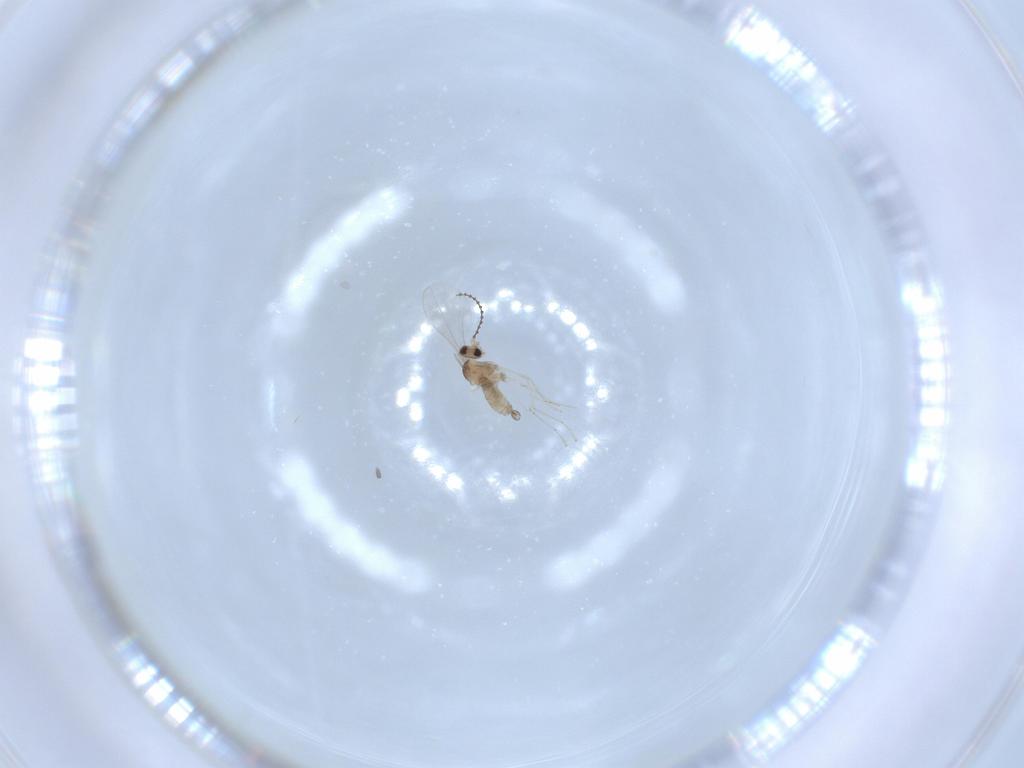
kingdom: Animalia
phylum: Arthropoda
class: Insecta
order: Diptera
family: Cecidomyiidae
